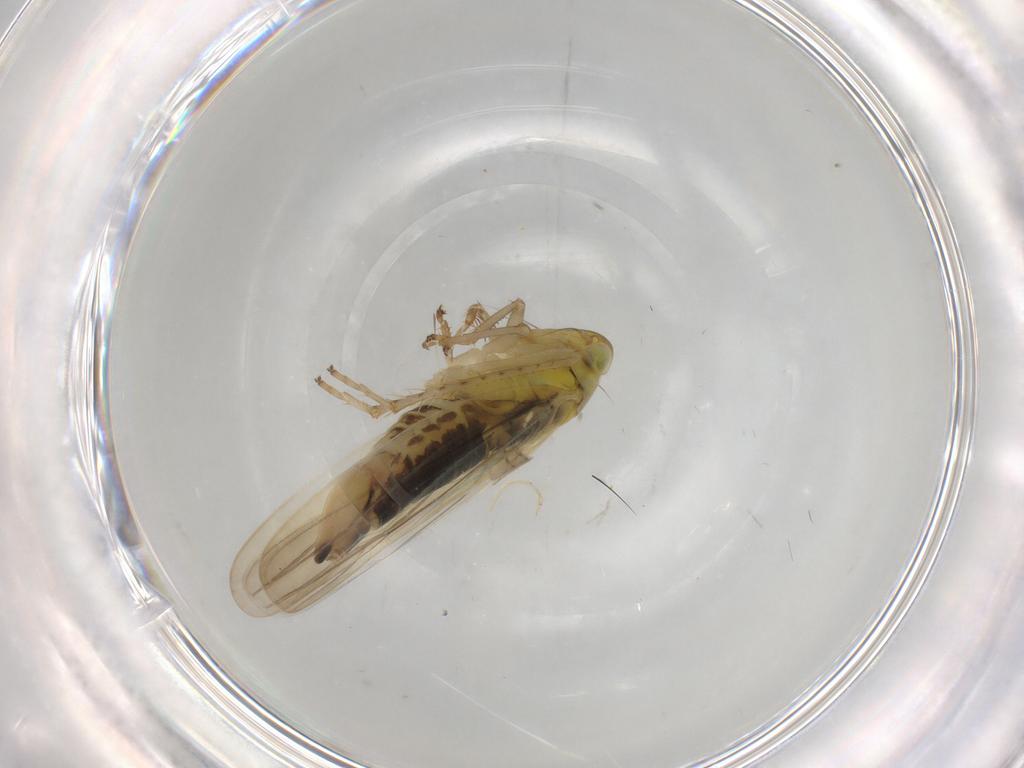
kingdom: Animalia
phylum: Arthropoda
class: Insecta
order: Hemiptera
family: Cicadellidae
